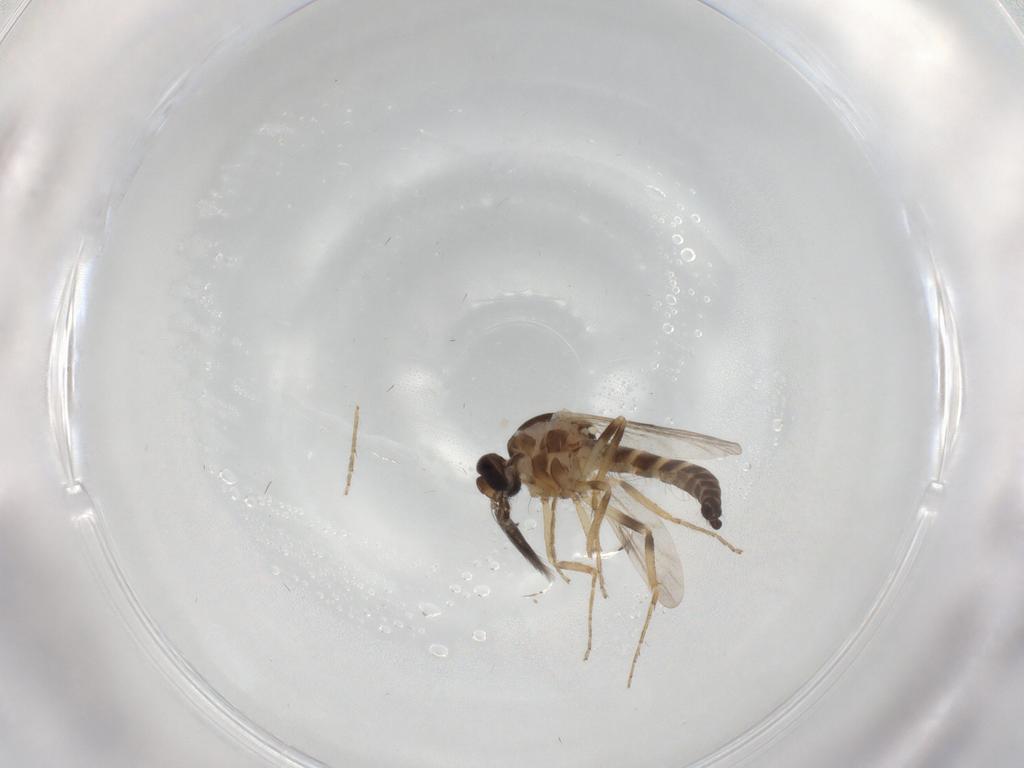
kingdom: Animalia
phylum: Arthropoda
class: Insecta
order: Diptera
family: Ceratopogonidae
